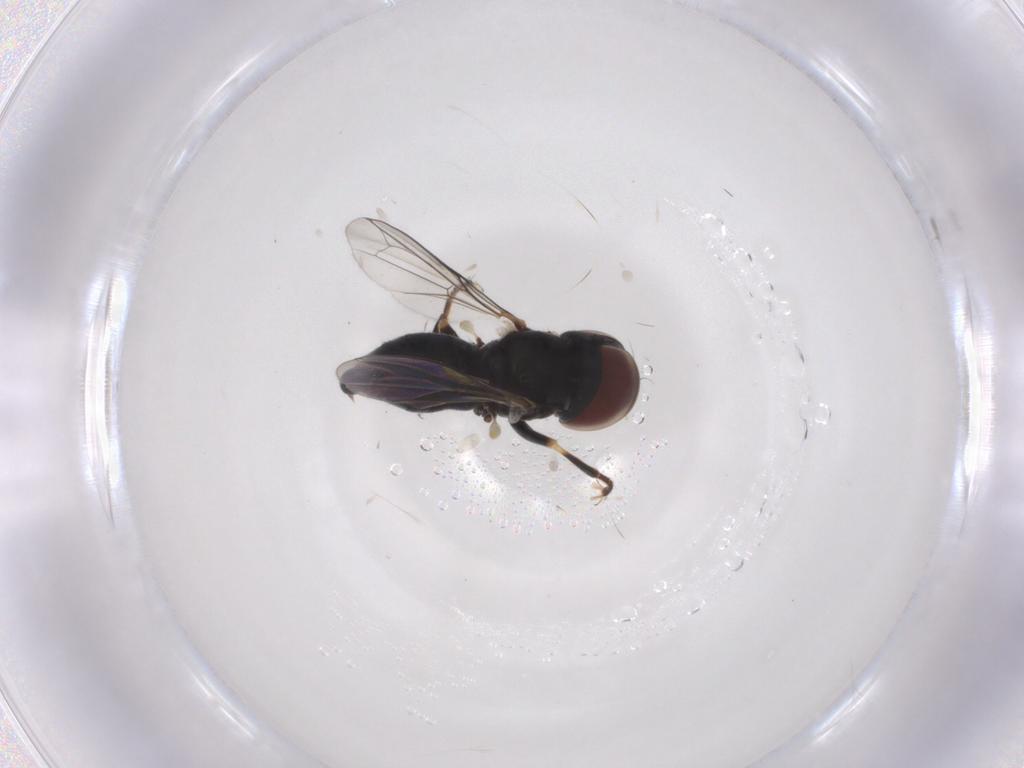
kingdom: Animalia
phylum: Arthropoda
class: Insecta
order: Diptera
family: Pipunculidae
